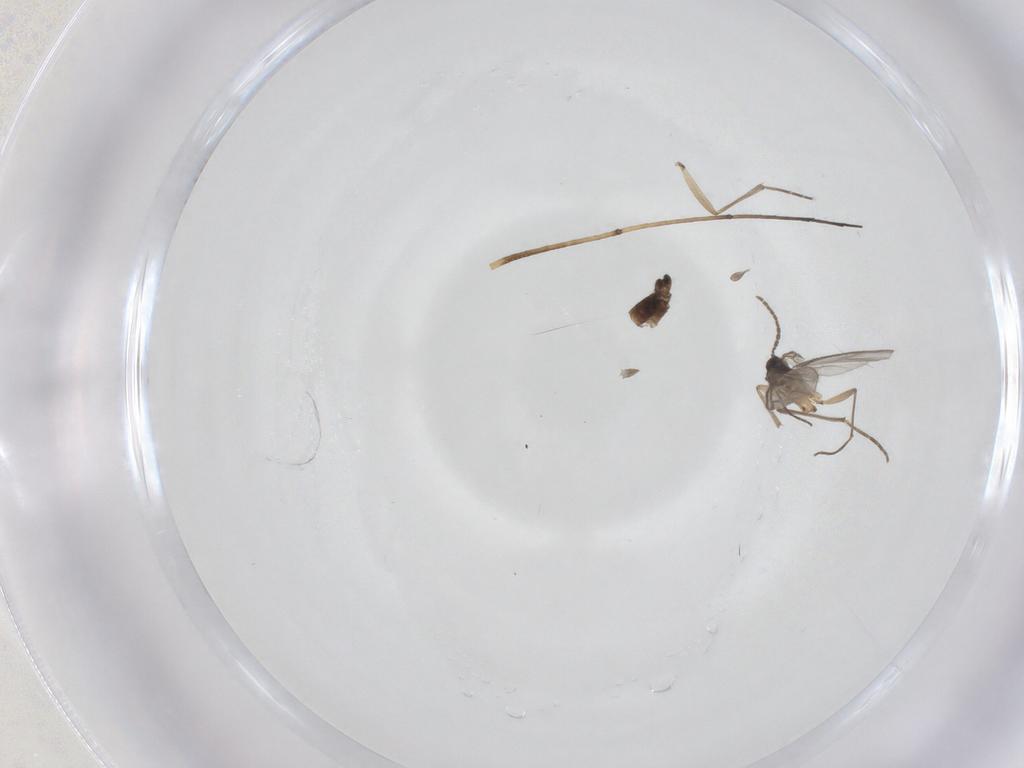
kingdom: Animalia
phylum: Arthropoda
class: Insecta
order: Diptera
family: Sciaridae
